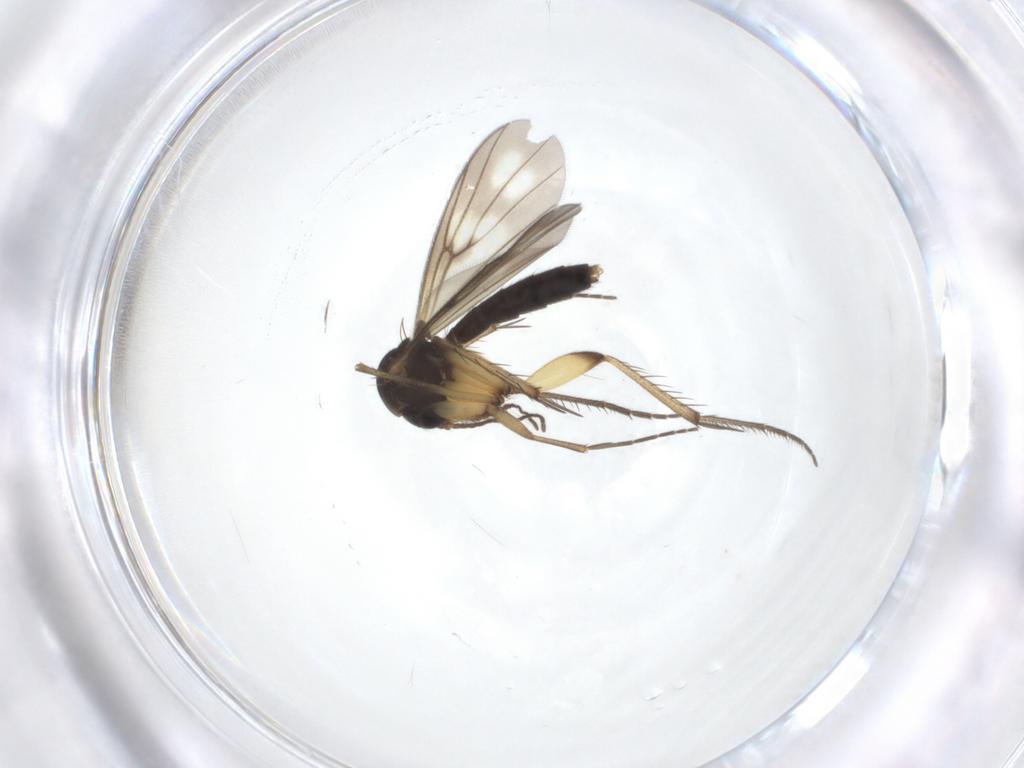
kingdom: Animalia
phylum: Arthropoda
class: Insecta
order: Diptera
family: Mycetophilidae
